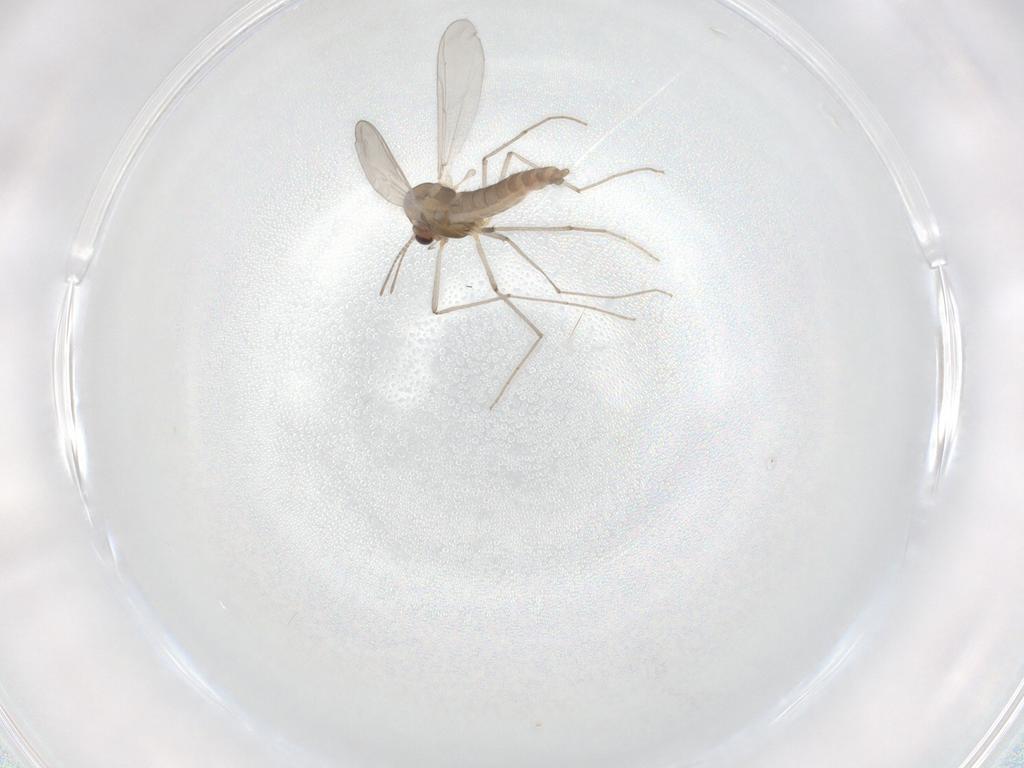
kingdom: Animalia
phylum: Arthropoda
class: Insecta
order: Diptera
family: Chironomidae
